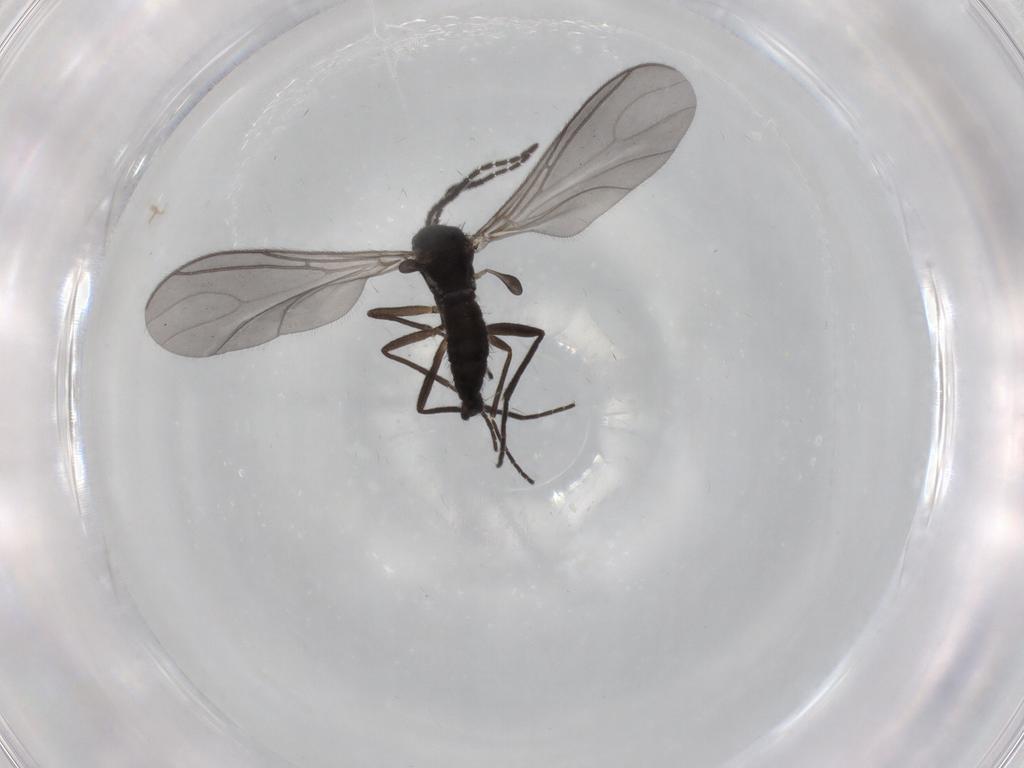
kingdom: Animalia
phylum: Arthropoda
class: Insecta
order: Diptera
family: Sciaridae
